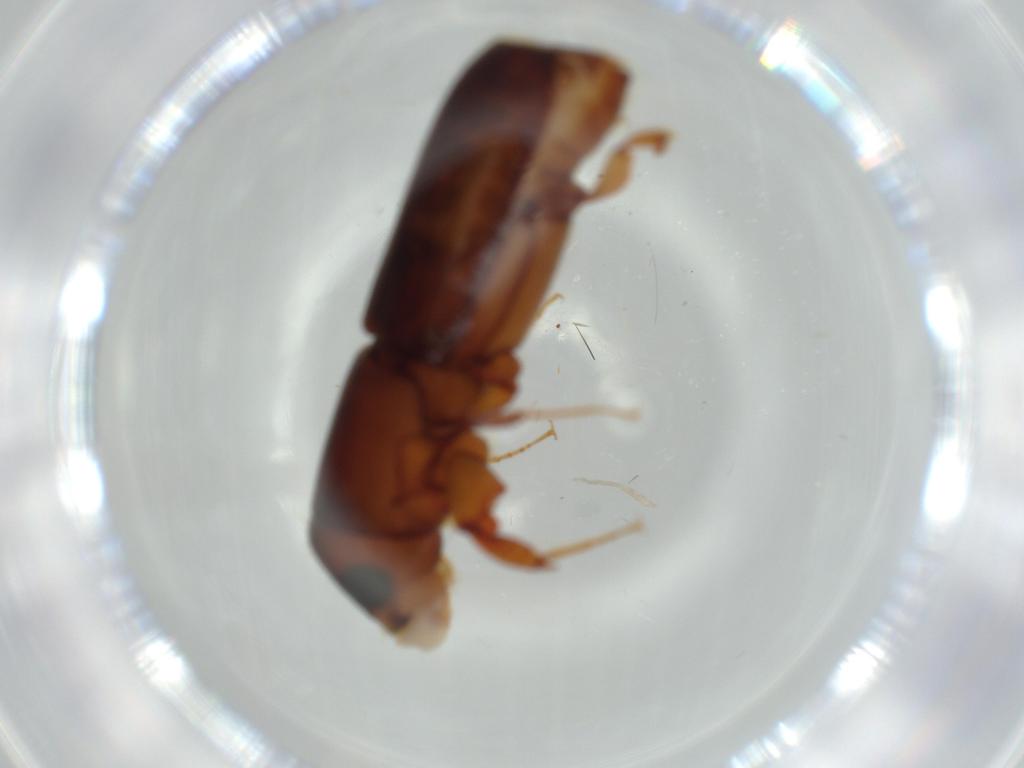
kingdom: Animalia
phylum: Arthropoda
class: Insecta
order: Coleoptera
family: Curculionidae
